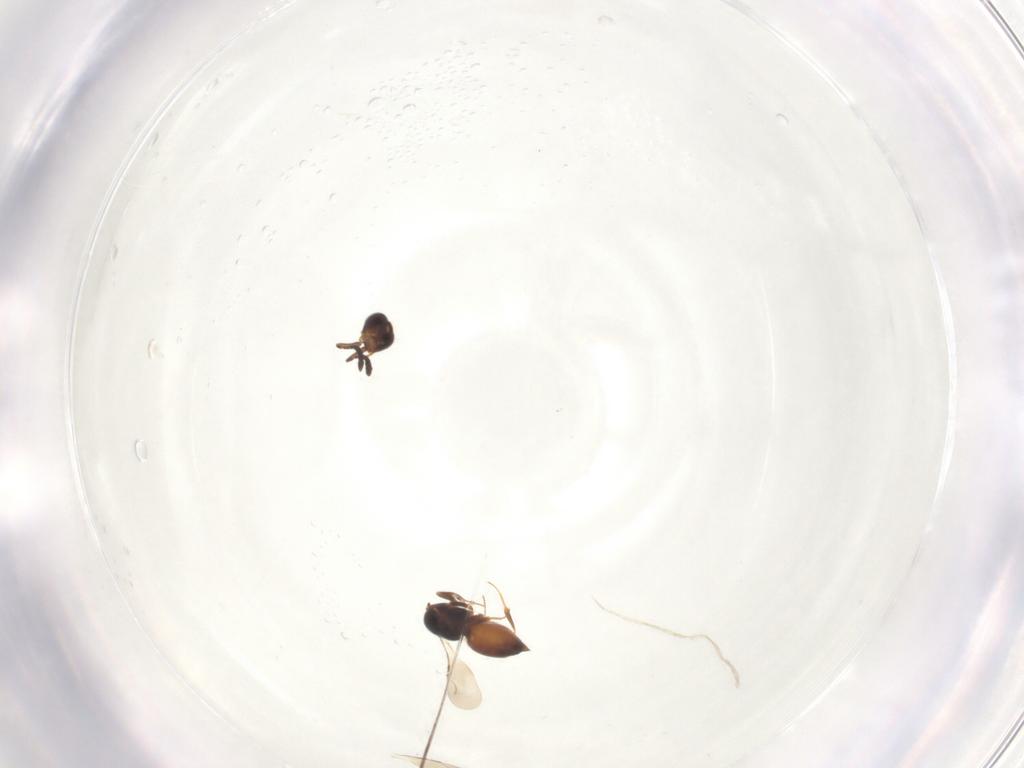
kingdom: Animalia
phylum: Arthropoda
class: Insecta
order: Hymenoptera
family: Ceraphronidae
